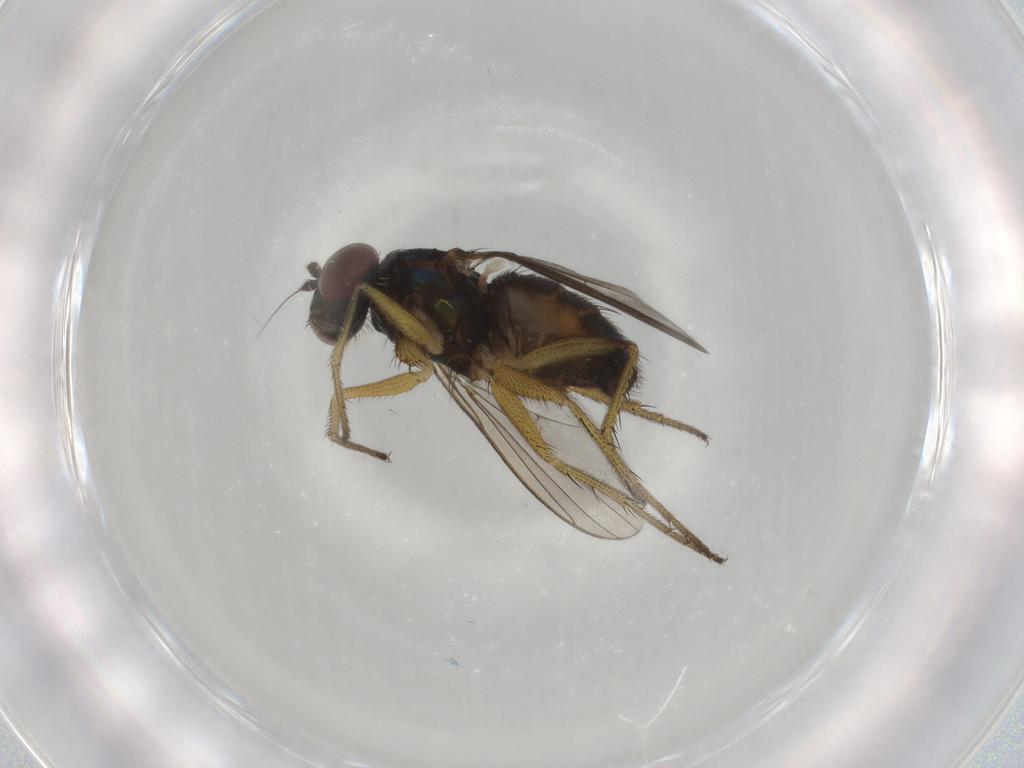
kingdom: Animalia
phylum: Arthropoda
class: Insecta
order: Diptera
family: Dolichopodidae
